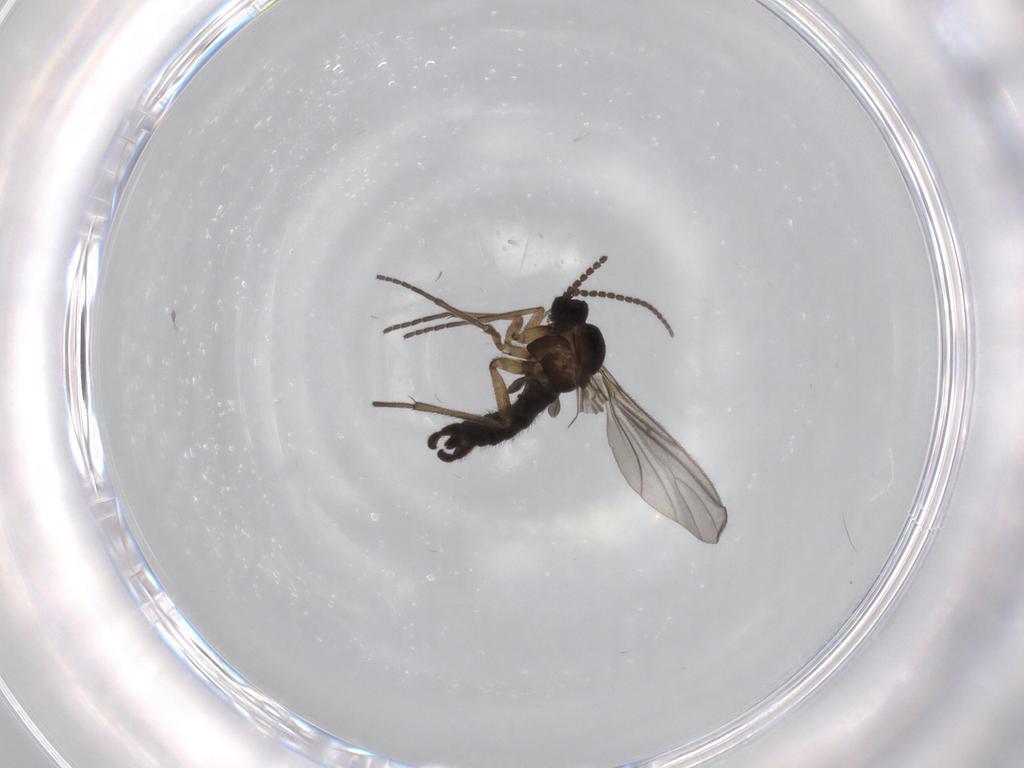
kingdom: Animalia
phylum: Arthropoda
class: Insecta
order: Diptera
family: Sciaridae
